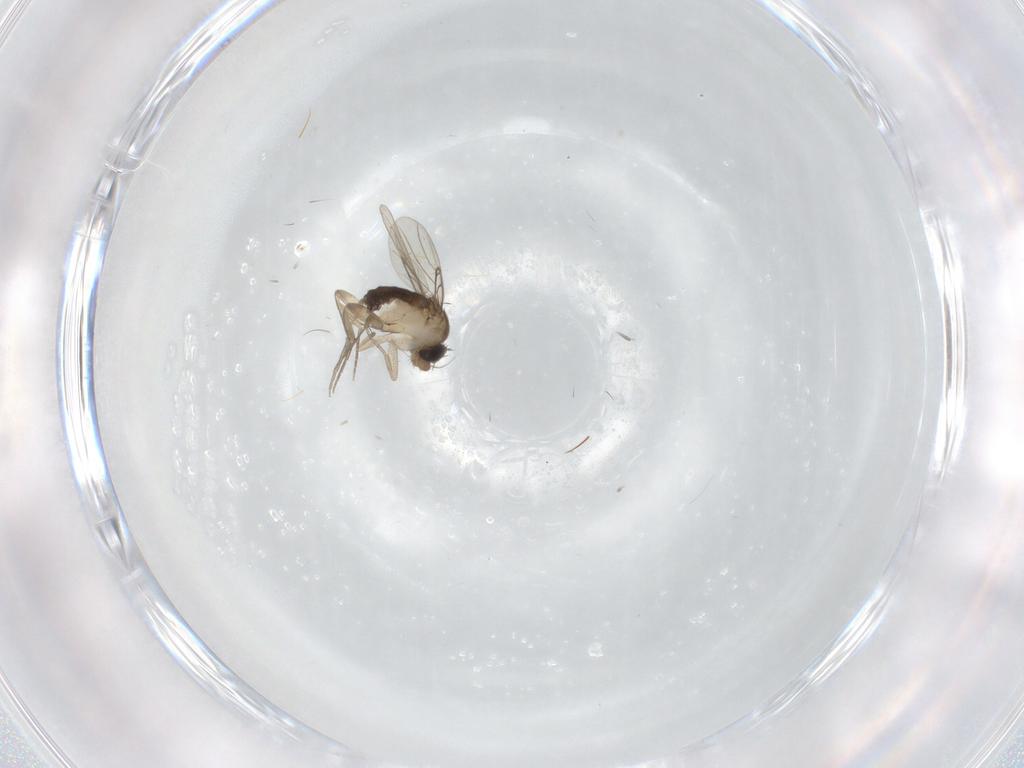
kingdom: Animalia
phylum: Arthropoda
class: Insecta
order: Diptera
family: Phoridae
